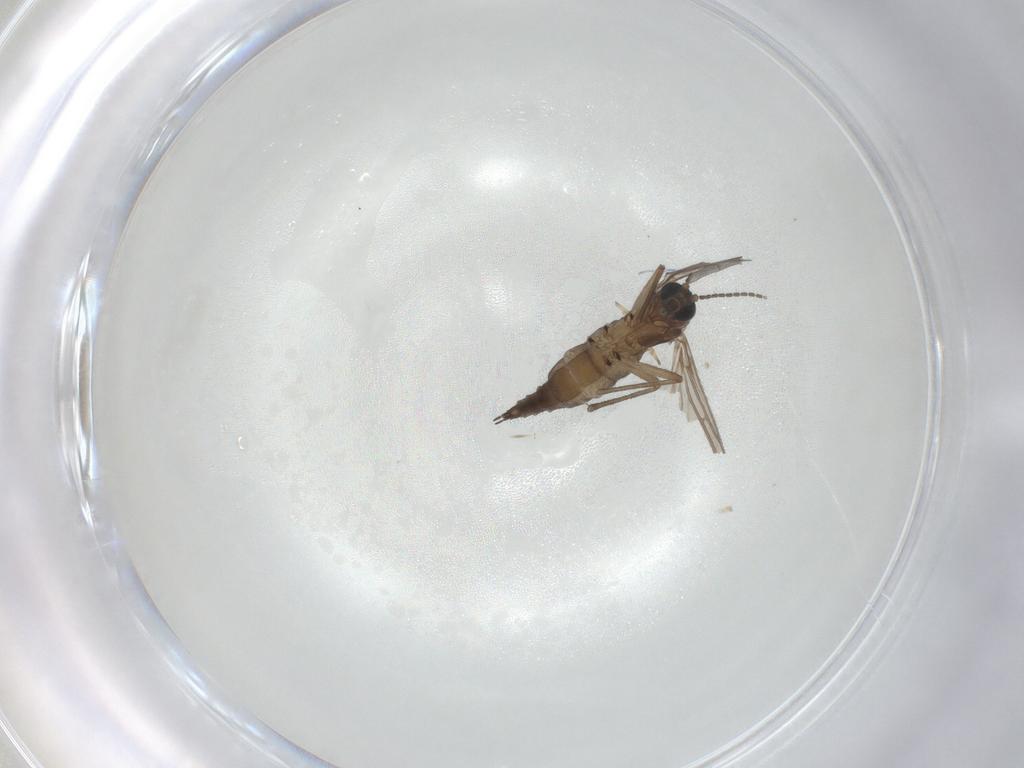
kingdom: Animalia
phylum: Arthropoda
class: Insecta
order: Diptera
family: Sciaridae
